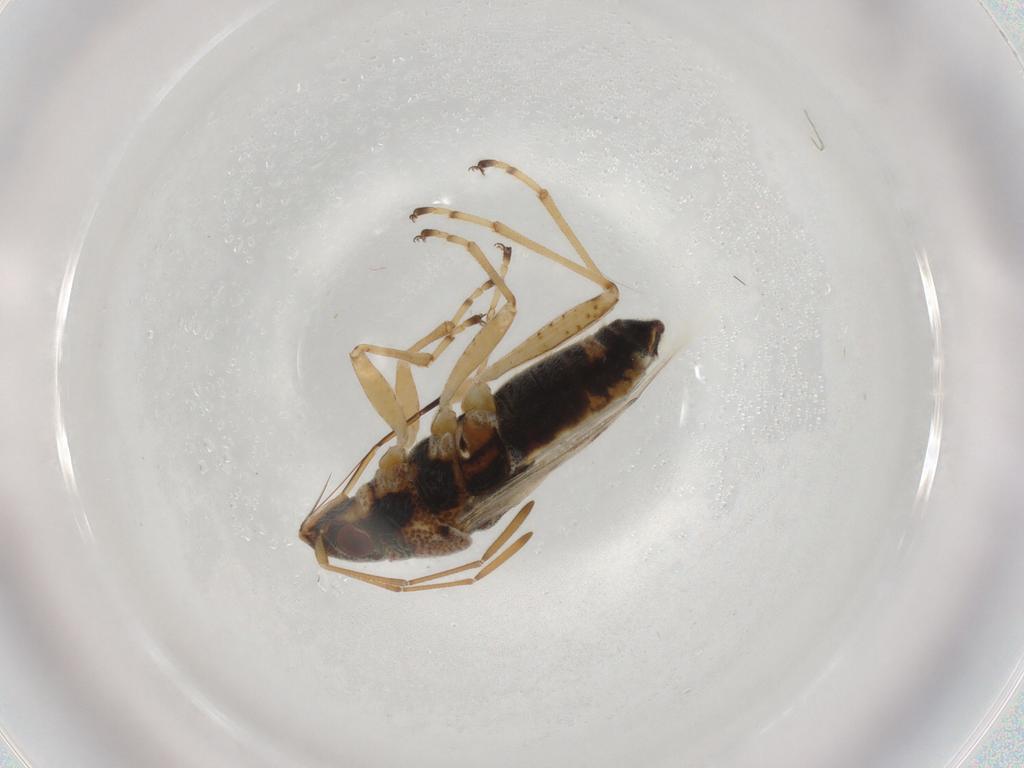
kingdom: Animalia
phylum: Arthropoda
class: Insecta
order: Hemiptera
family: Lygaeidae
